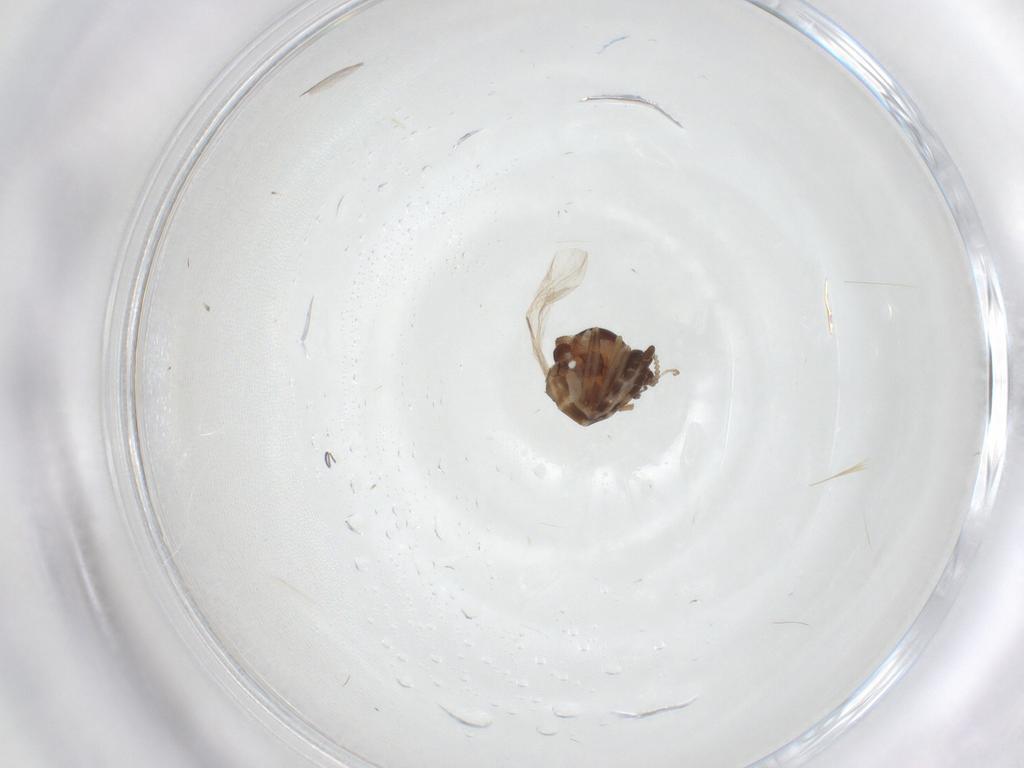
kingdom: Animalia
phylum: Arthropoda
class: Insecta
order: Diptera
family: Ceratopogonidae
